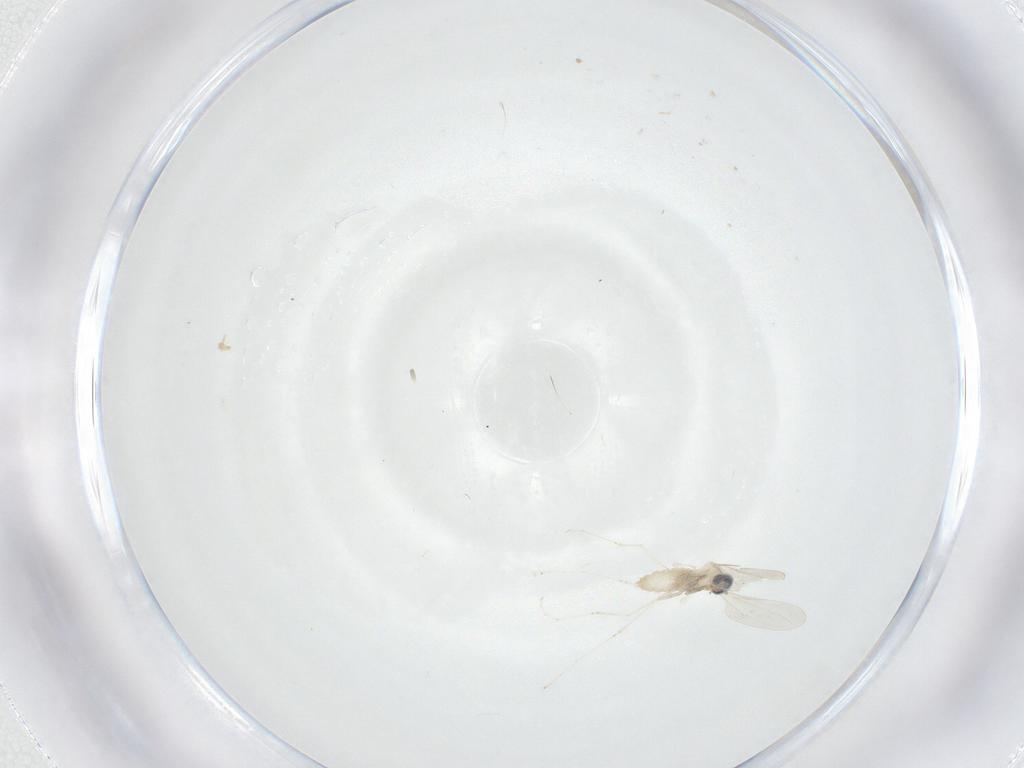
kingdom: Animalia
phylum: Arthropoda
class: Insecta
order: Diptera
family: Cecidomyiidae
